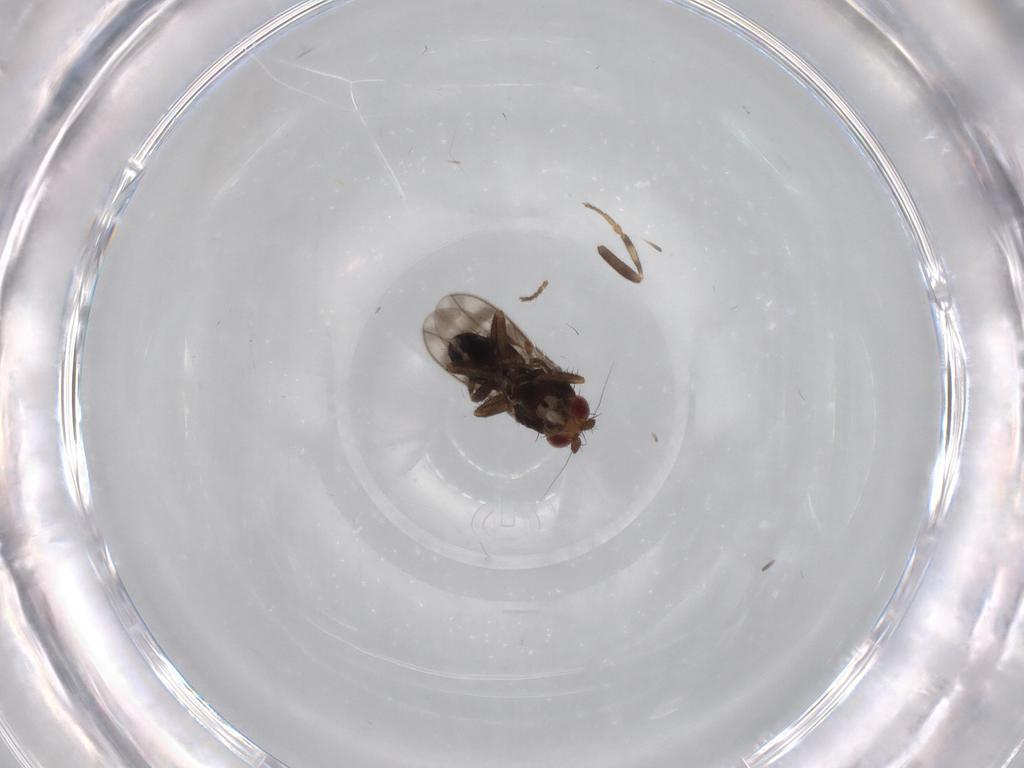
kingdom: Animalia
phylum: Arthropoda
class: Insecta
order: Diptera
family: Sphaeroceridae
